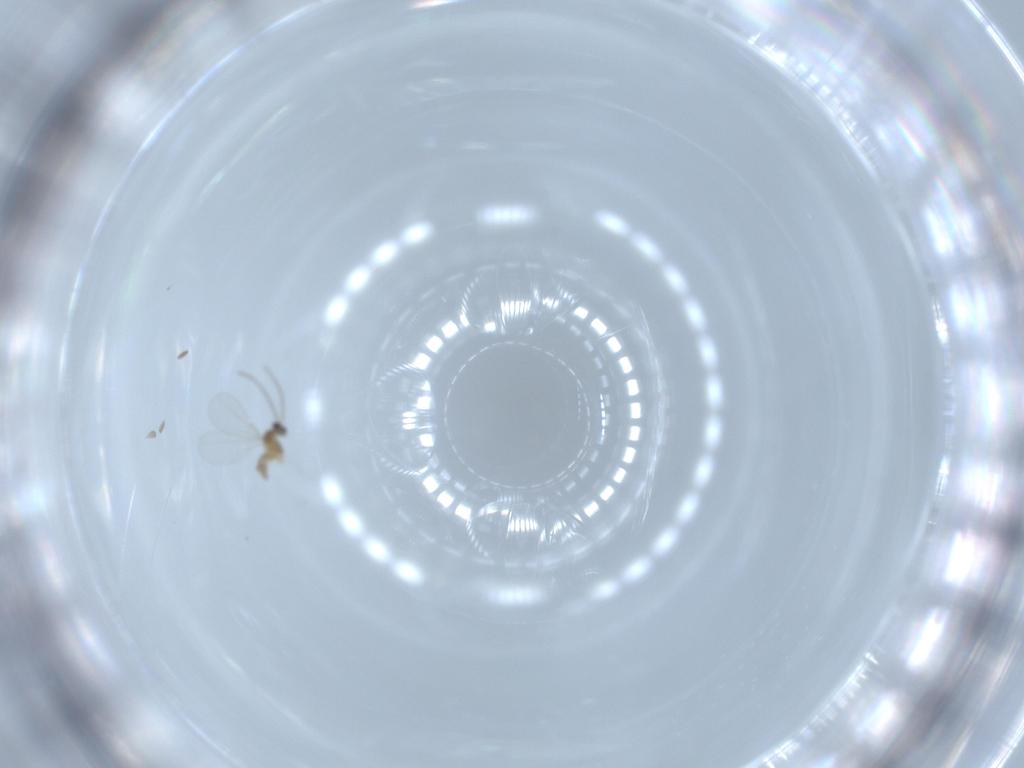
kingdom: Animalia
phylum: Arthropoda
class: Insecta
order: Diptera
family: Cecidomyiidae
